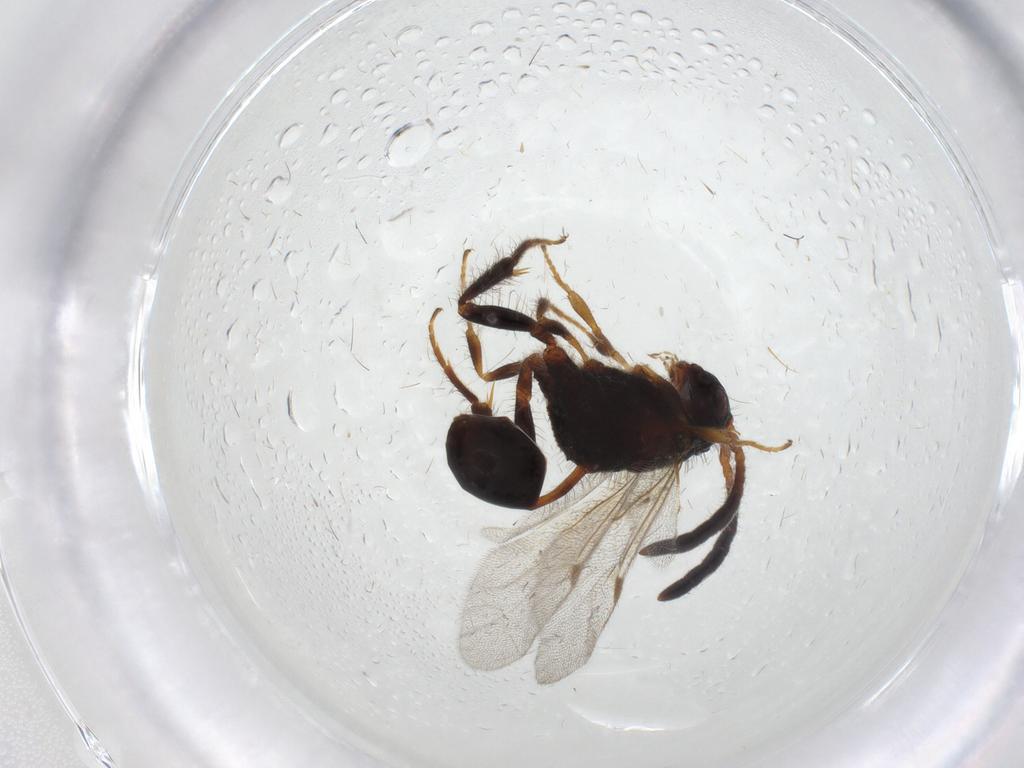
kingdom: Animalia
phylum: Arthropoda
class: Insecta
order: Hymenoptera
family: Evaniidae
